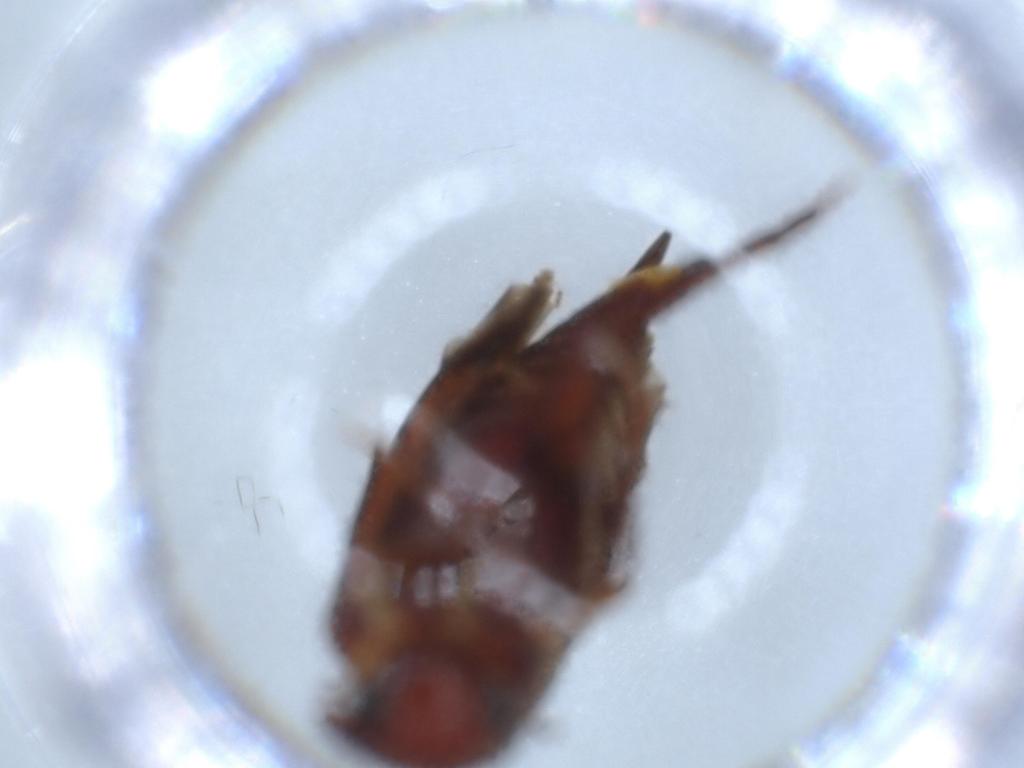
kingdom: Animalia
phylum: Arthropoda
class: Insecta
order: Coleoptera
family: Mordellidae
